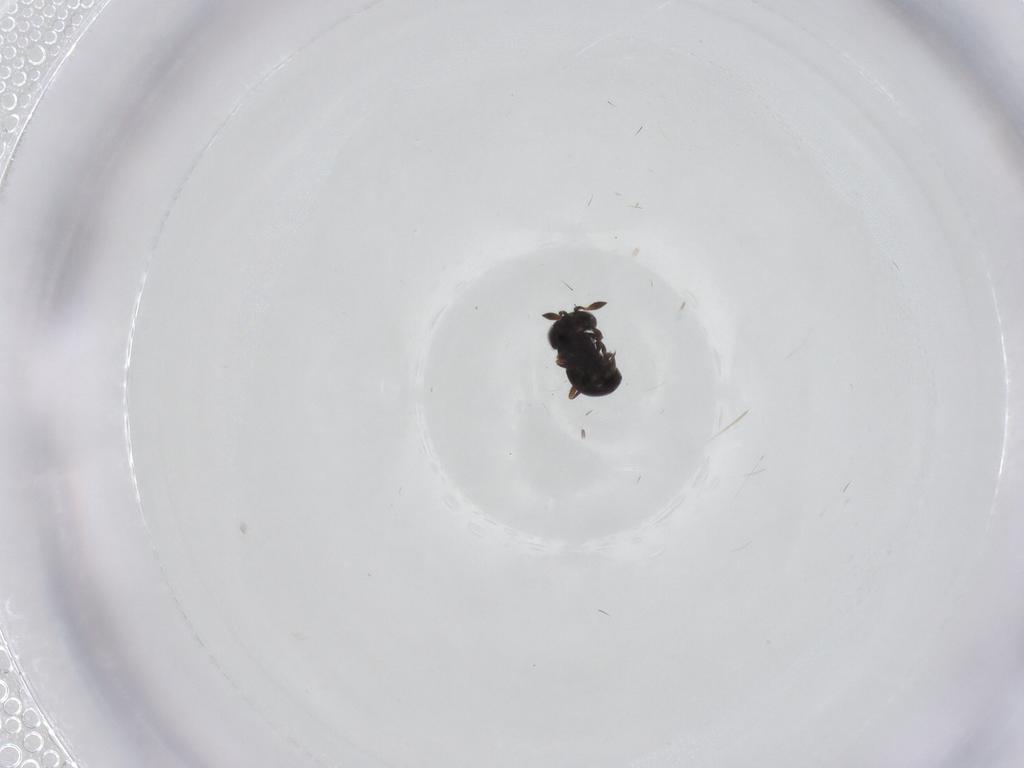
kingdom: Animalia
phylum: Arthropoda
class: Insecta
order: Hymenoptera
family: Scelionidae
